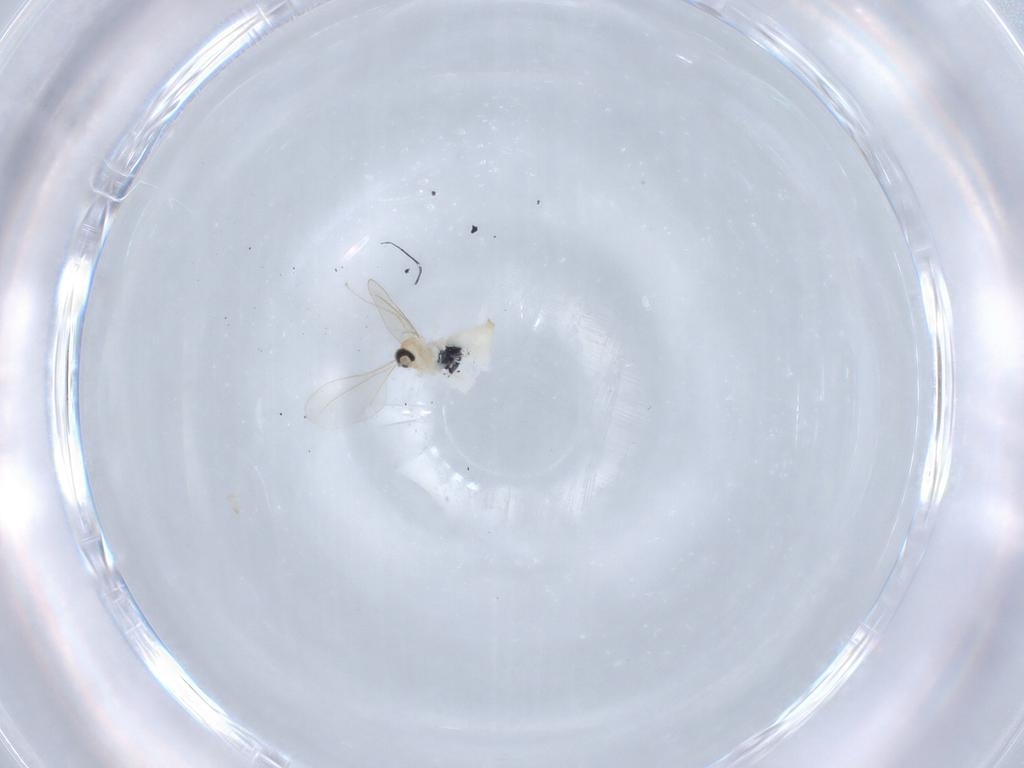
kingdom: Animalia
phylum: Arthropoda
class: Insecta
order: Diptera
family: Cecidomyiidae
